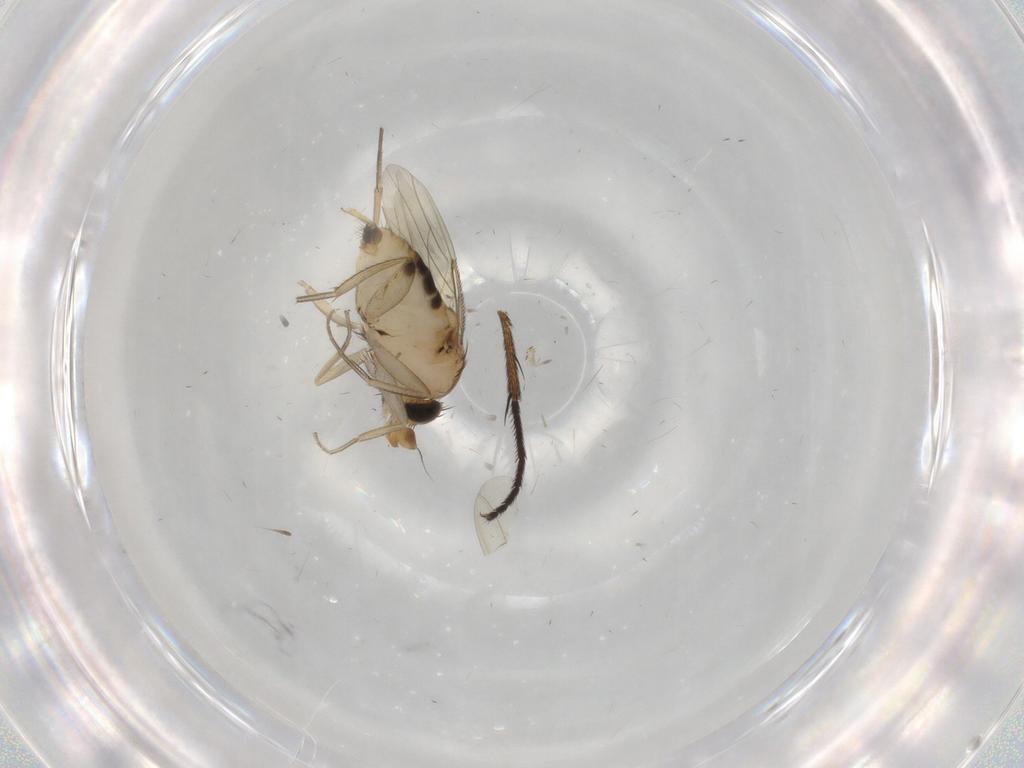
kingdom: Animalia
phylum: Arthropoda
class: Insecta
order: Diptera
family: Phoridae
